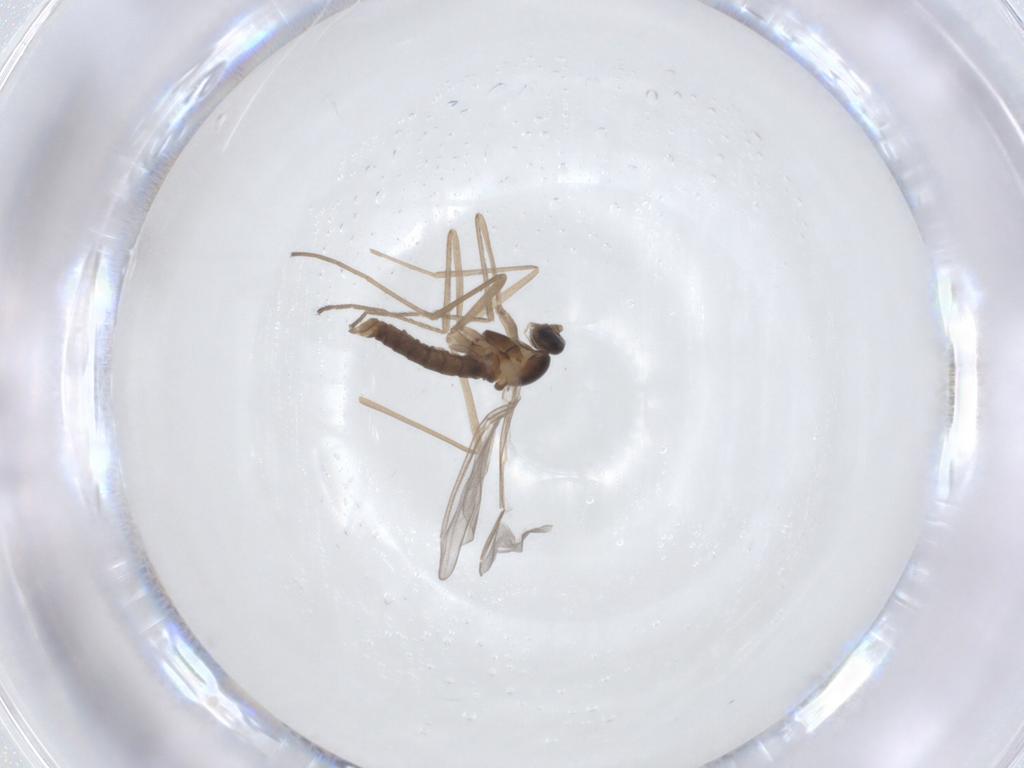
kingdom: Animalia
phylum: Arthropoda
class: Insecta
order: Diptera
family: Cecidomyiidae
